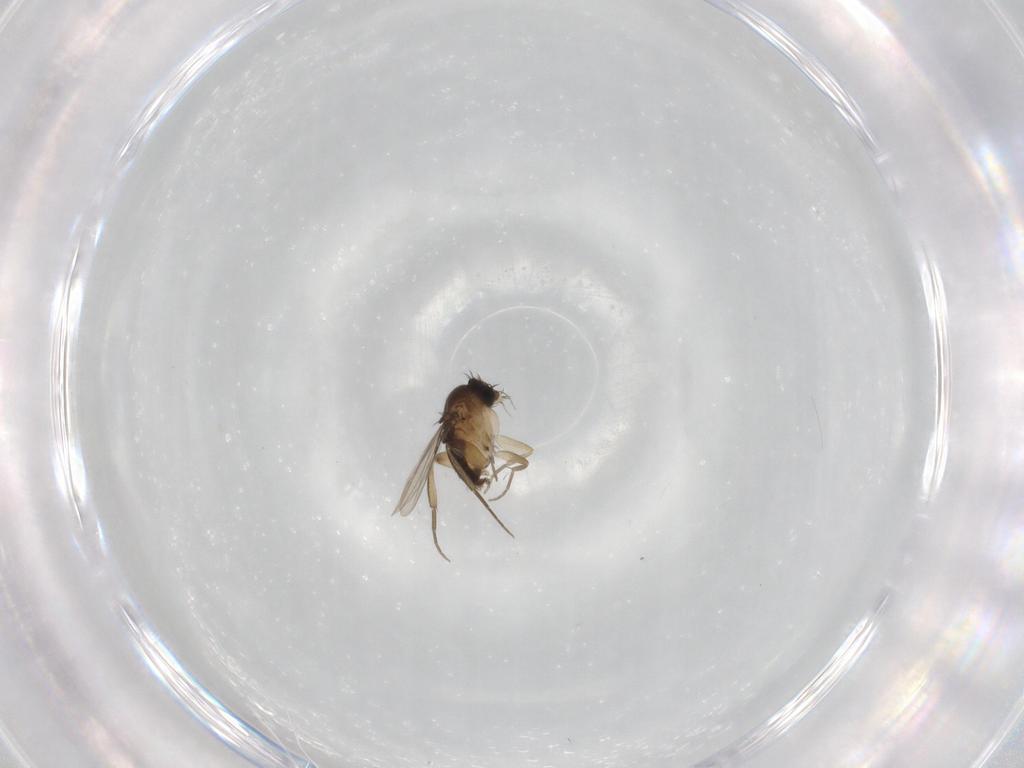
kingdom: Animalia
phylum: Arthropoda
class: Insecta
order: Diptera
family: Phoridae
